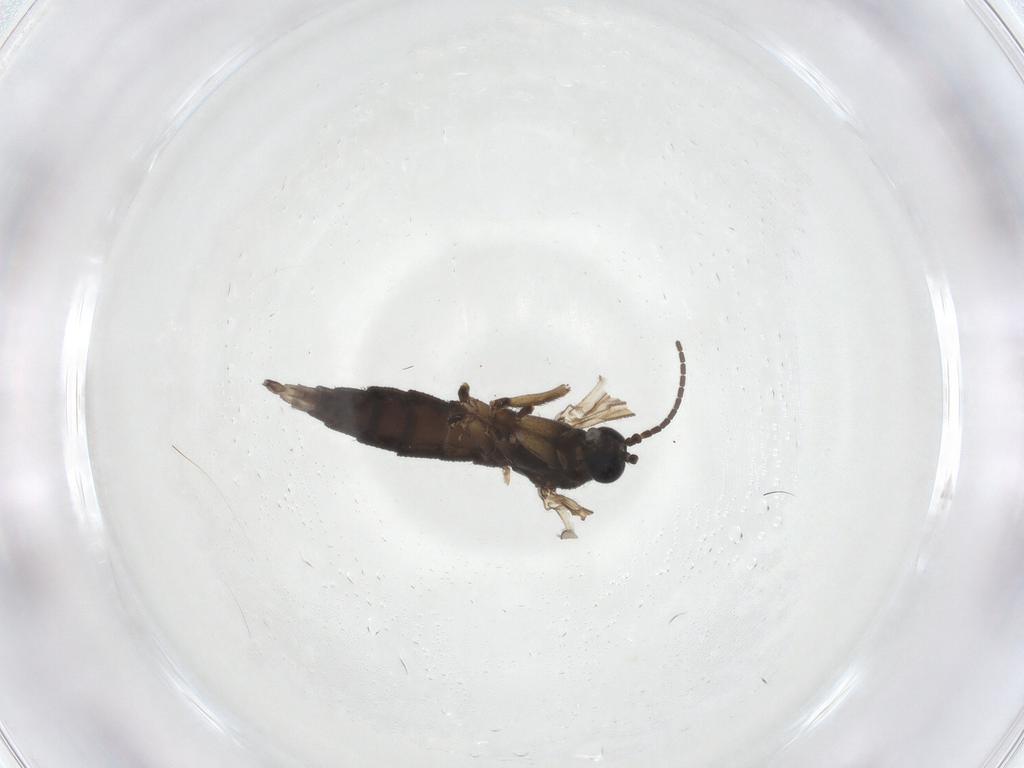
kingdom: Animalia
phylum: Arthropoda
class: Insecta
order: Diptera
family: Sciaridae
